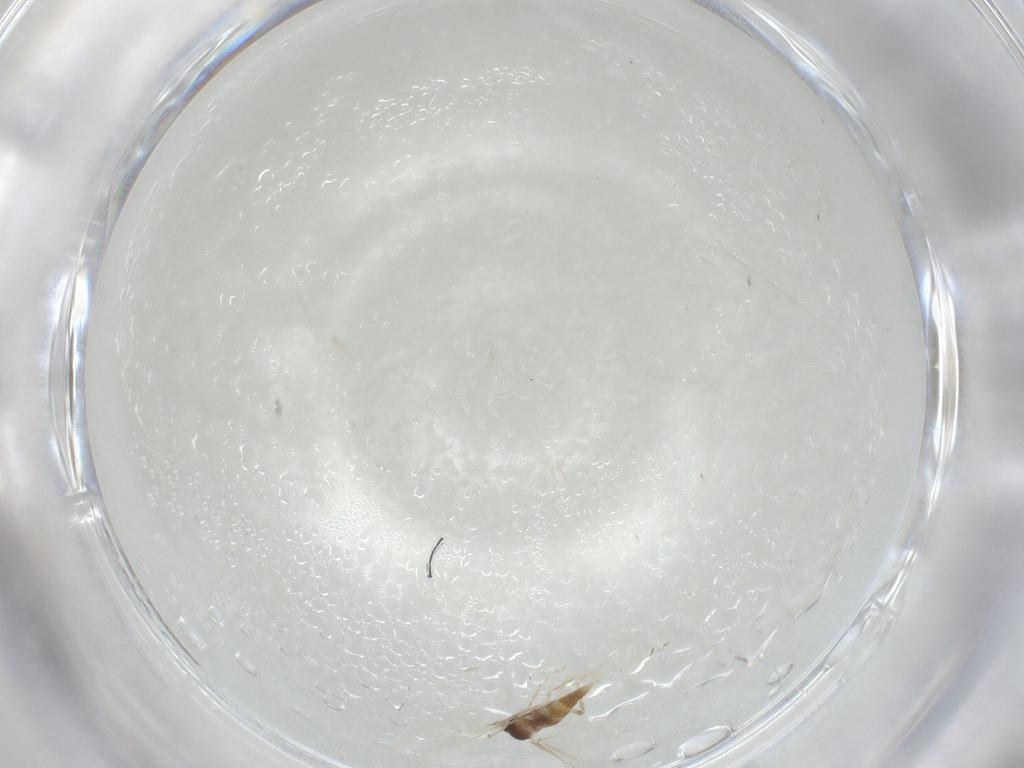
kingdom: Animalia
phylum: Arthropoda
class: Insecta
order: Diptera
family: Cecidomyiidae
